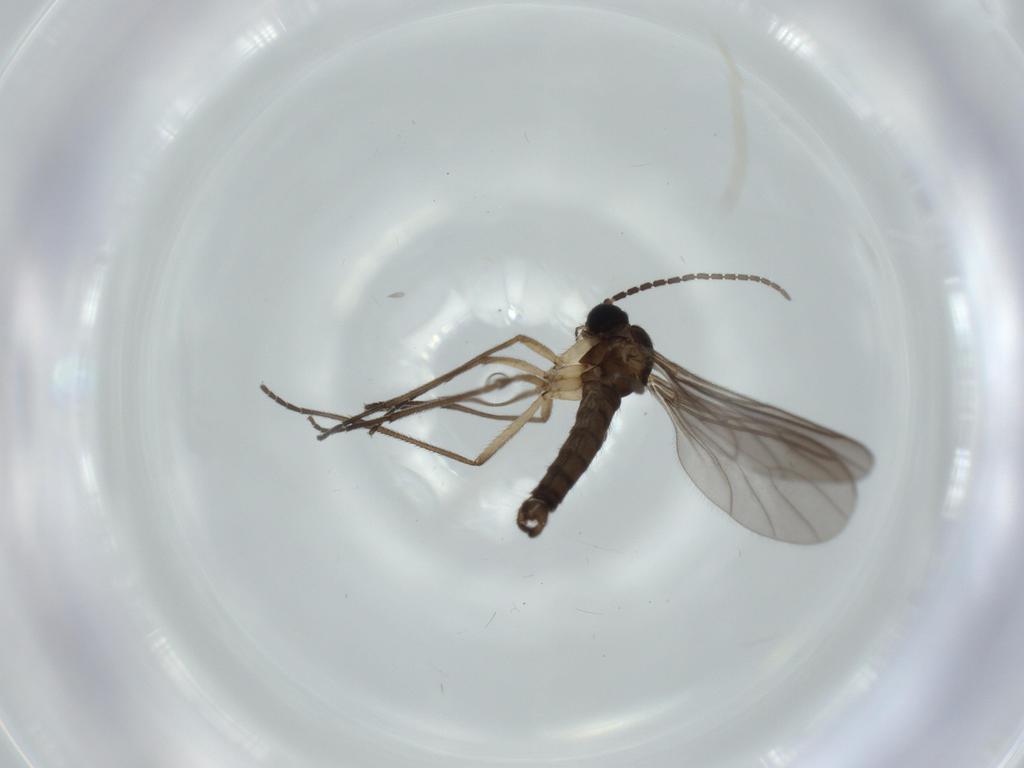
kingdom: Animalia
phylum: Arthropoda
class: Insecta
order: Diptera
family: Sciaridae
